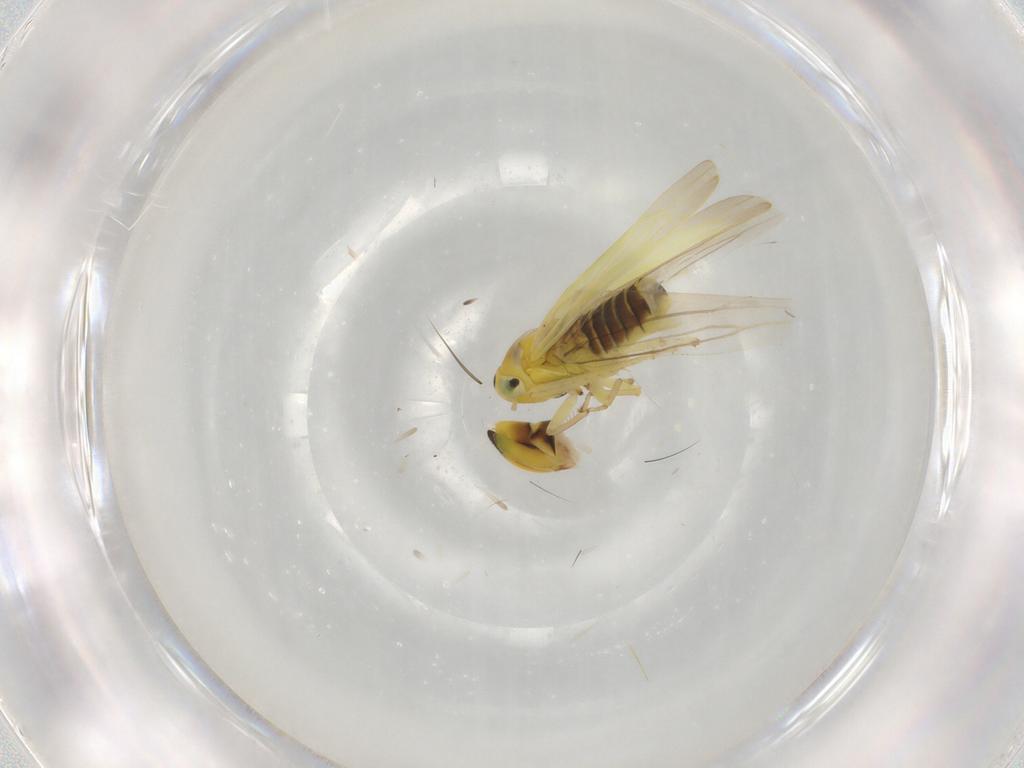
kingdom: Animalia
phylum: Arthropoda
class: Insecta
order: Hemiptera
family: Cicadellidae
